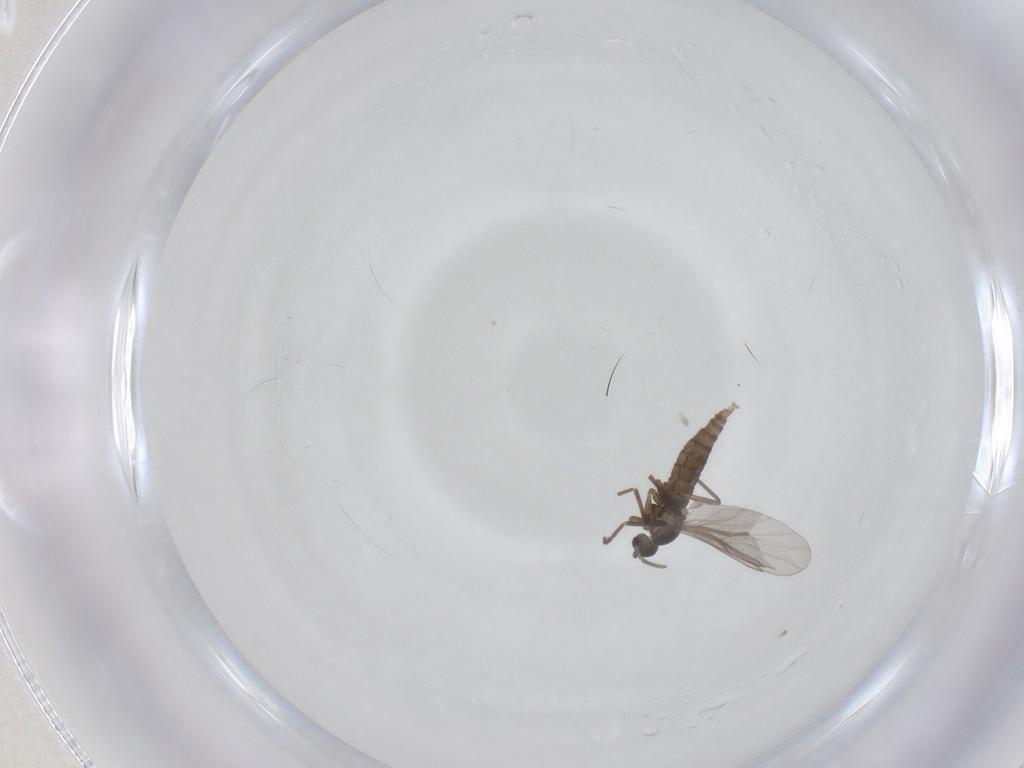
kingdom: Animalia
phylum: Arthropoda
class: Insecta
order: Diptera
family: Cecidomyiidae
